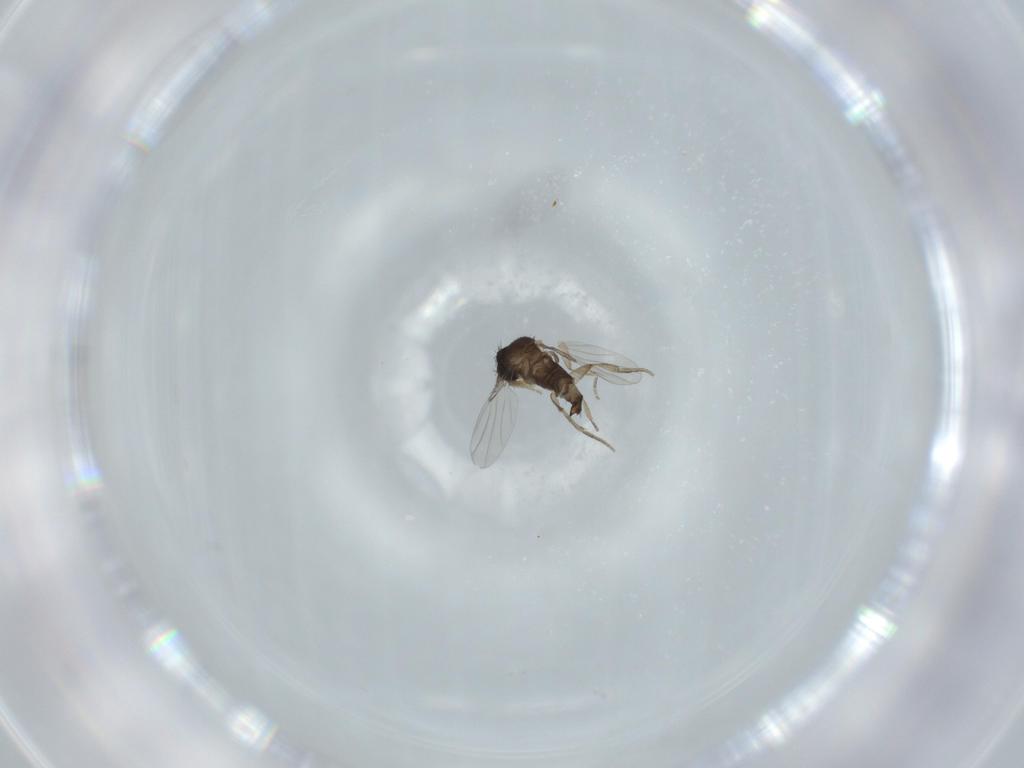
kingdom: Animalia
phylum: Arthropoda
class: Insecta
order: Diptera
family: Phoridae
